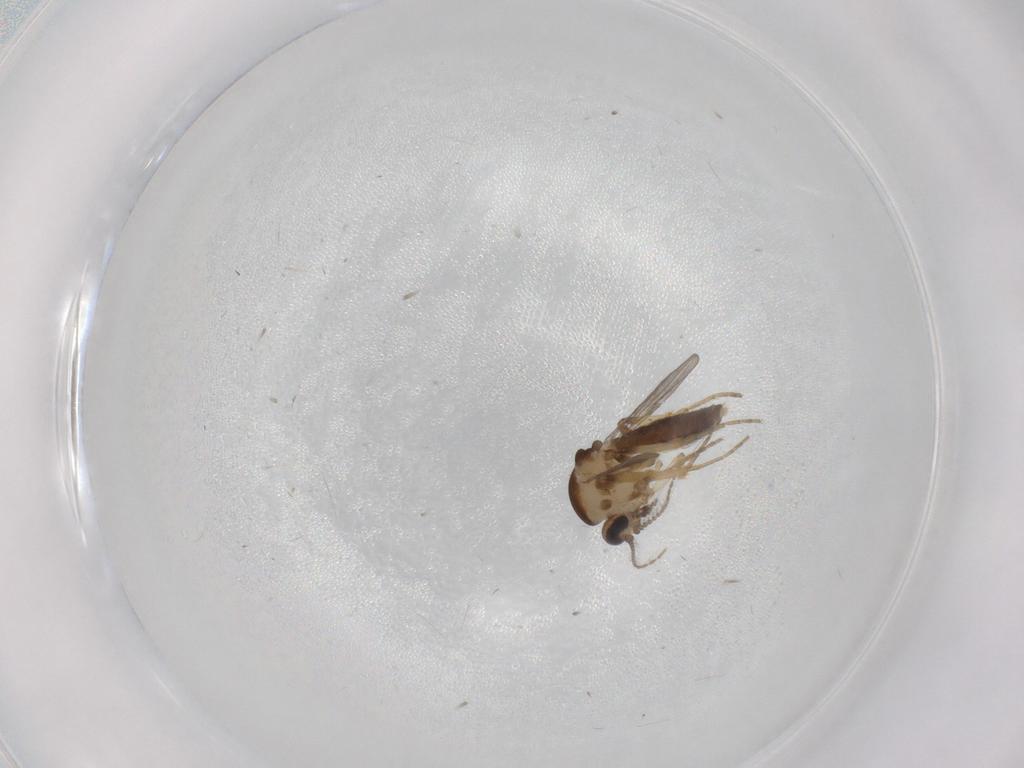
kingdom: Animalia
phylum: Arthropoda
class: Insecta
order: Diptera
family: Ceratopogonidae
